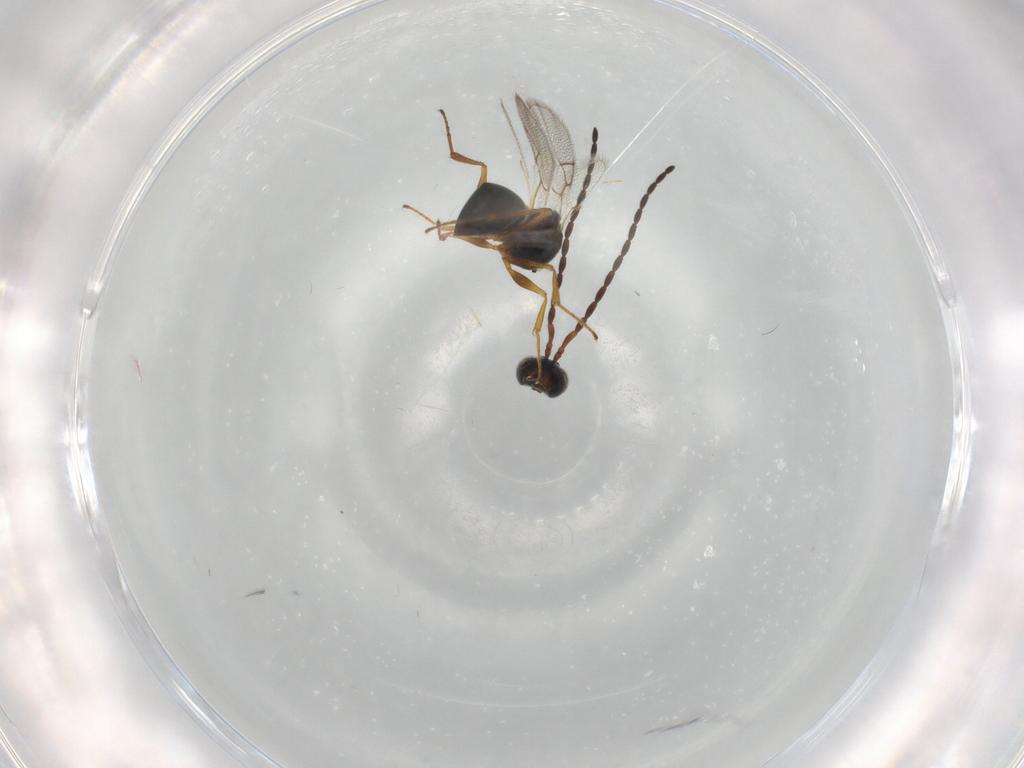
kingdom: Animalia
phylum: Arthropoda
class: Insecta
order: Hymenoptera
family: Figitidae
